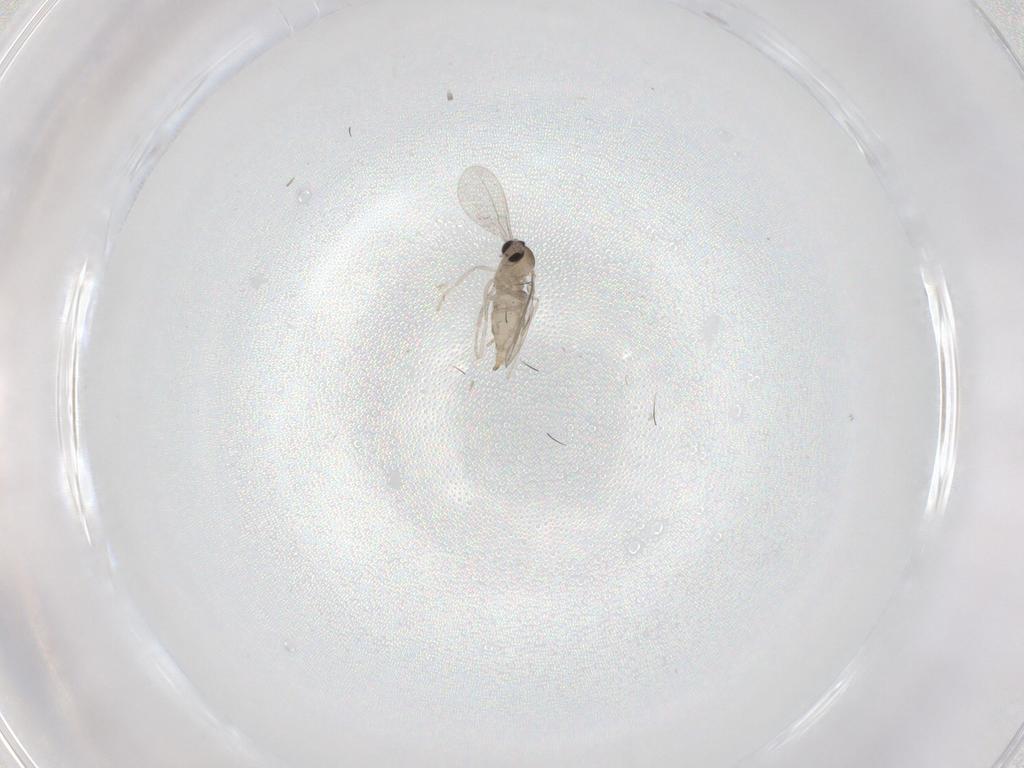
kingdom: Animalia
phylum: Arthropoda
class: Insecta
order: Diptera
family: Cecidomyiidae
